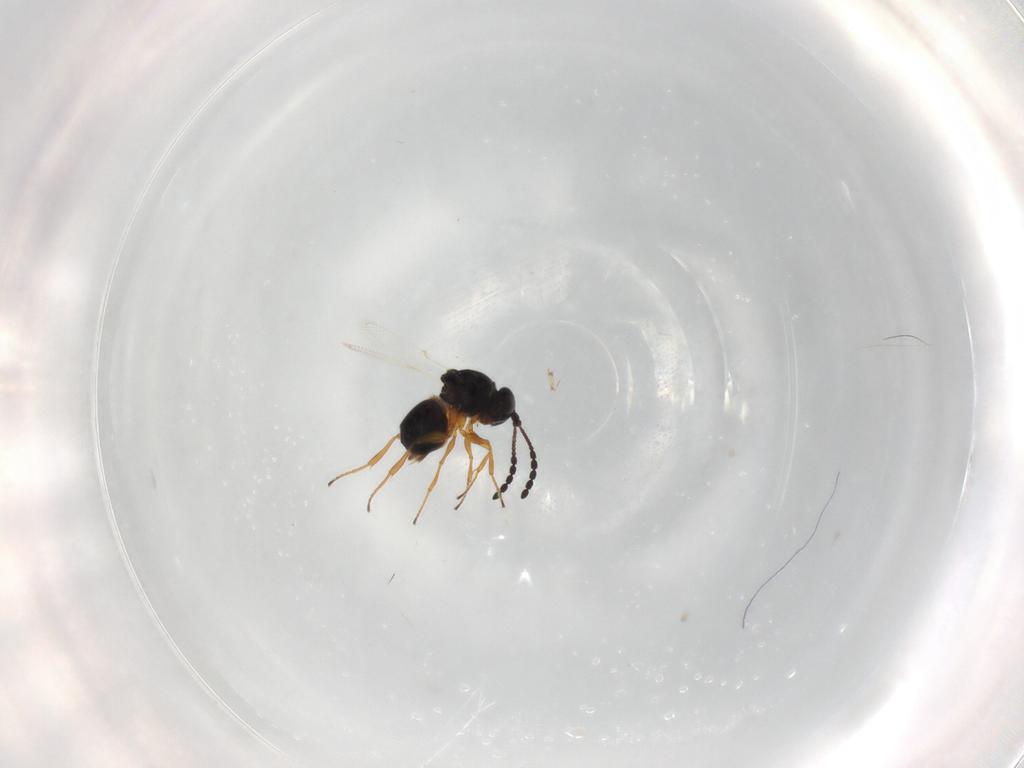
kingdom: Animalia
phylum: Arthropoda
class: Insecta
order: Hymenoptera
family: Figitidae
